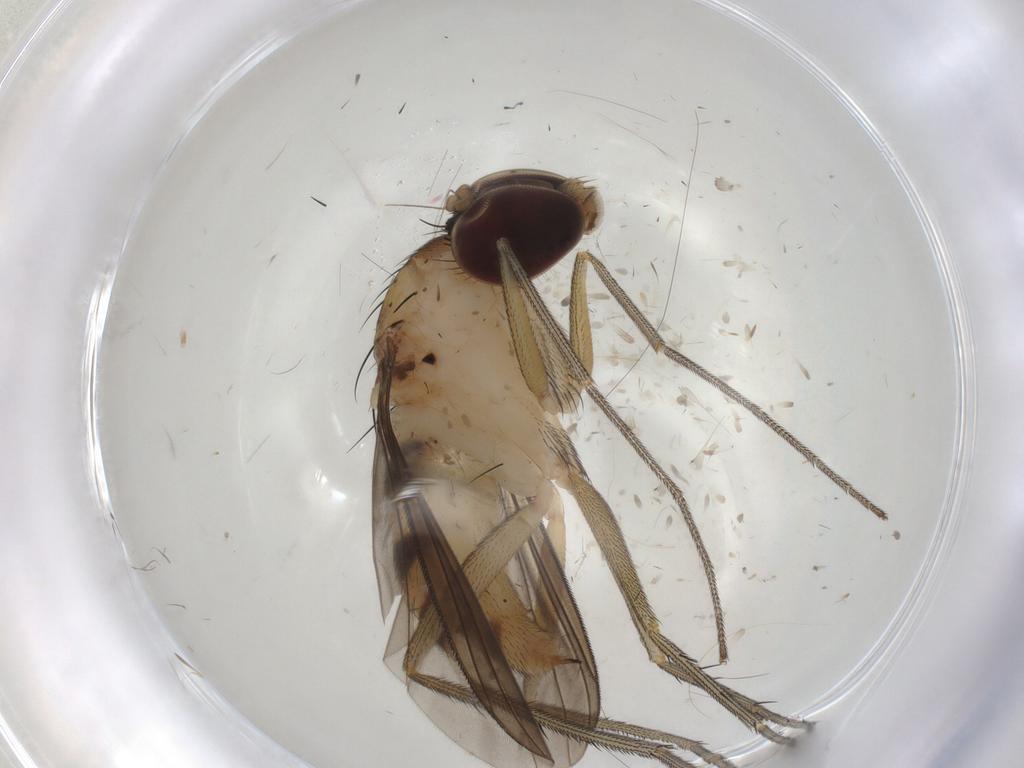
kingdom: Animalia
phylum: Arthropoda
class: Insecta
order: Diptera
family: Dolichopodidae
